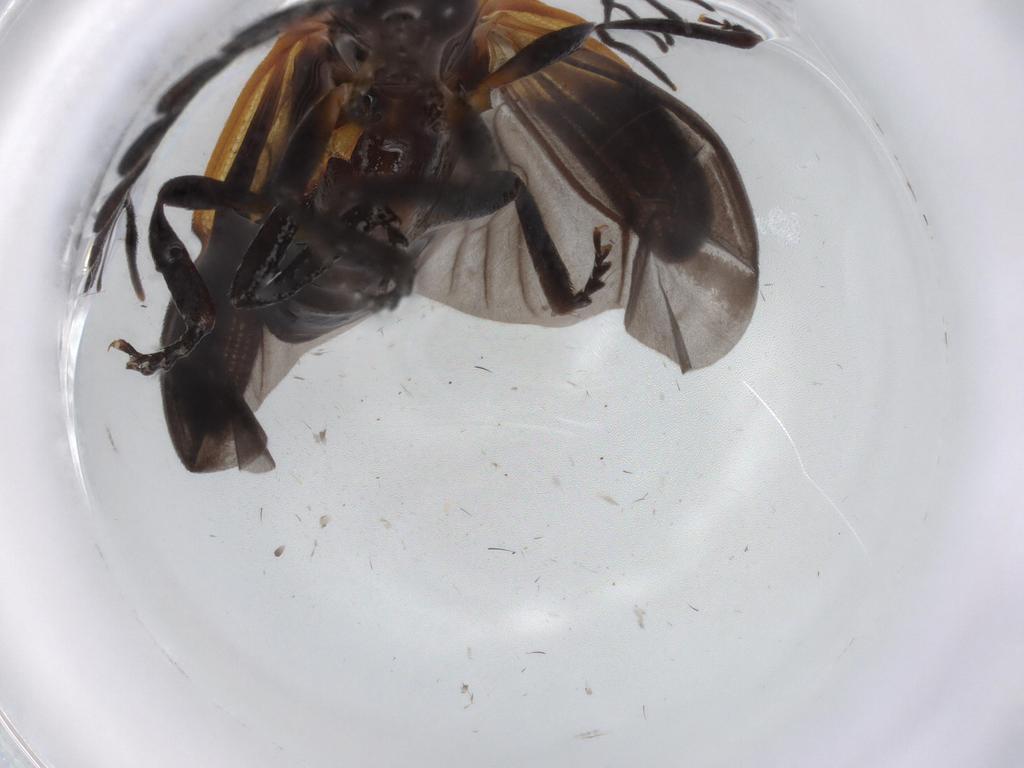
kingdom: Animalia
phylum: Arthropoda
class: Insecta
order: Coleoptera
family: Lycidae
